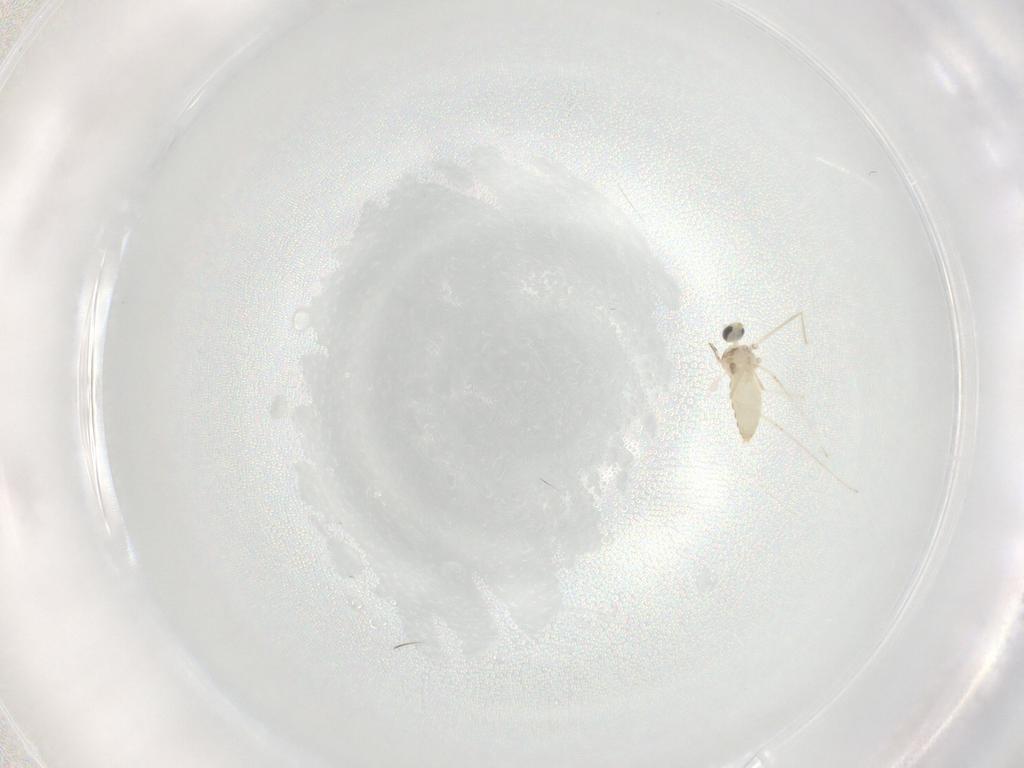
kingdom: Animalia
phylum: Arthropoda
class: Insecta
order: Diptera
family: Cecidomyiidae
